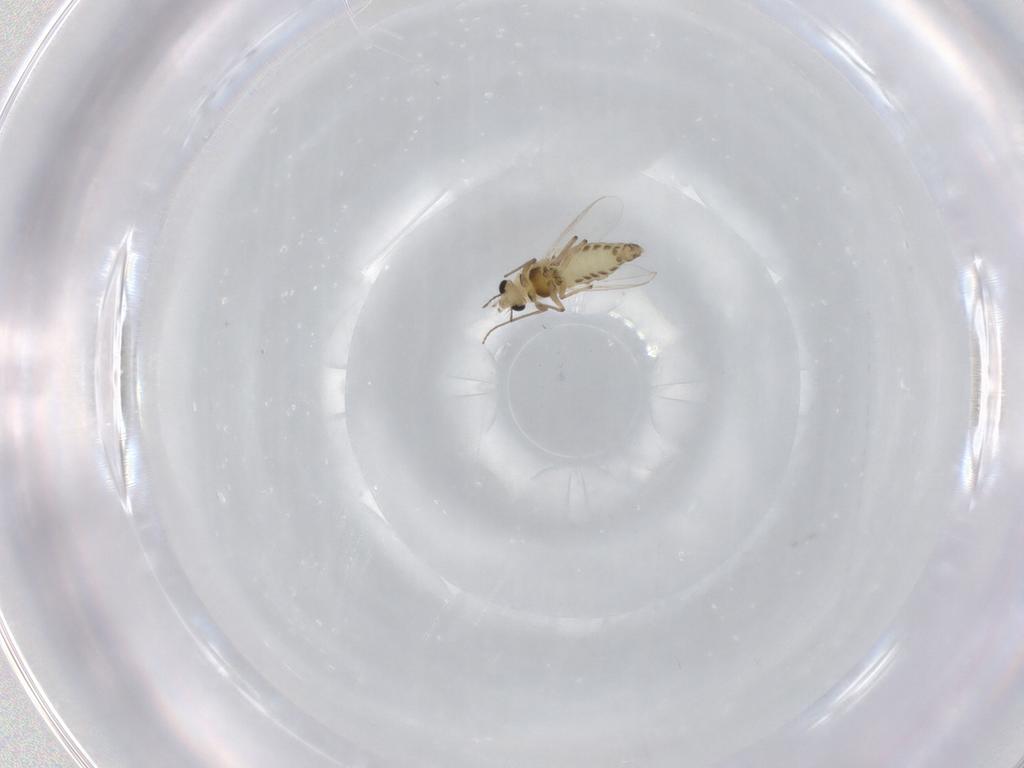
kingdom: Animalia
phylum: Arthropoda
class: Insecta
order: Diptera
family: Chironomidae
